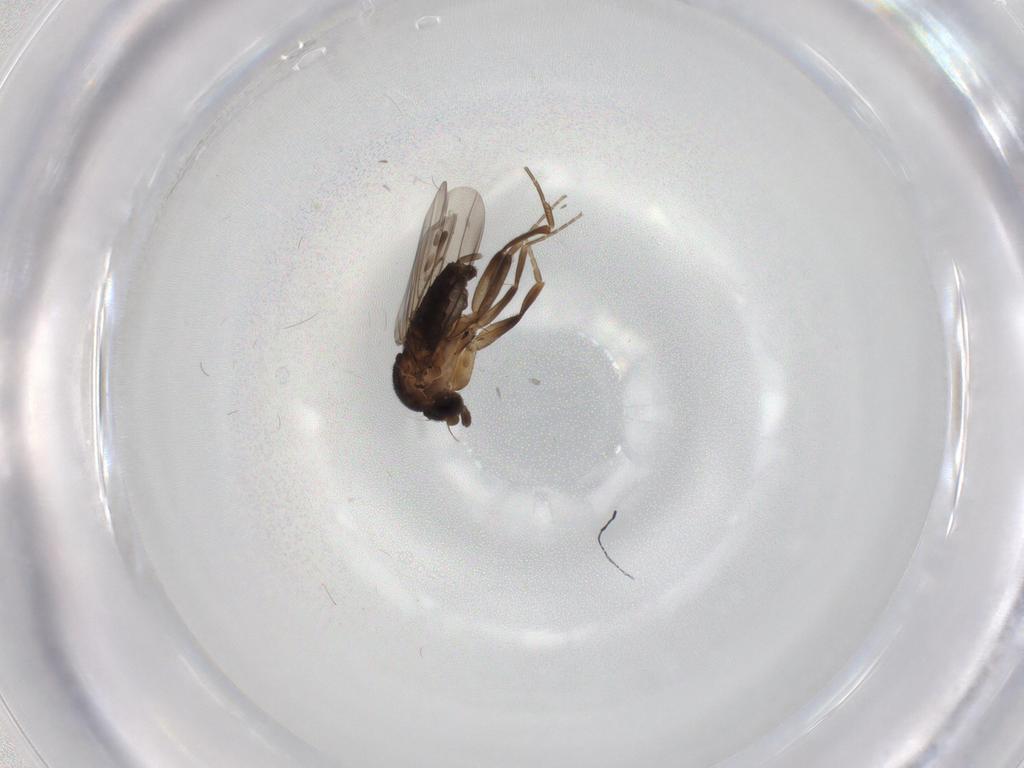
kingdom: Animalia
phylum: Arthropoda
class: Insecta
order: Diptera
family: Phoridae
